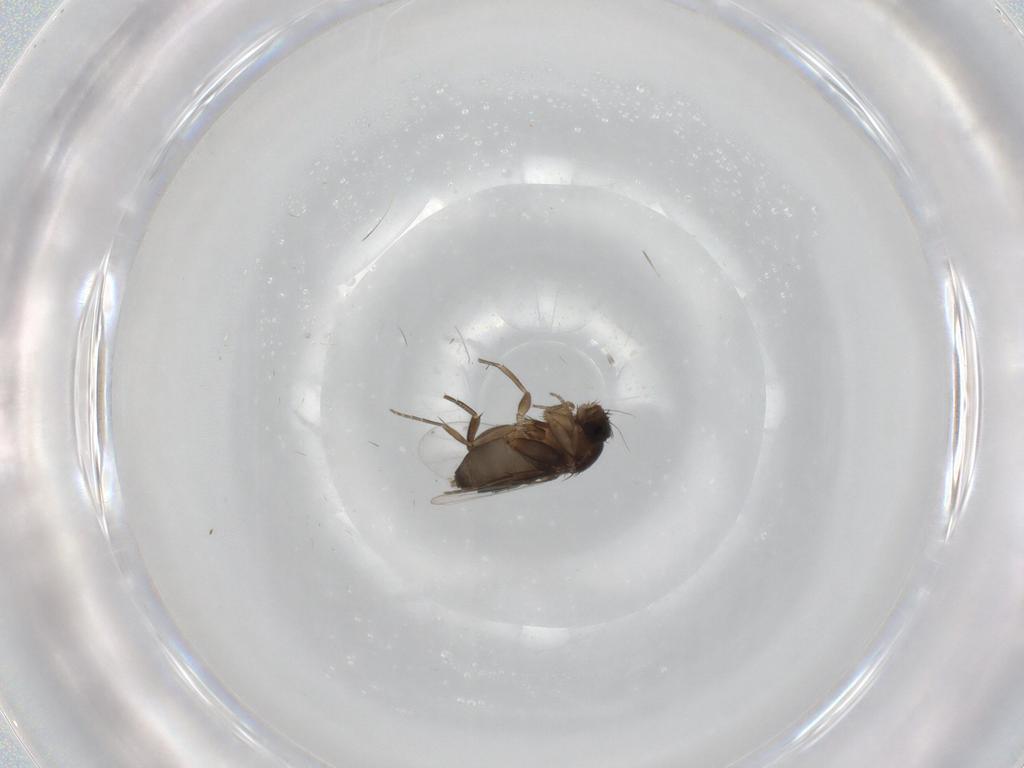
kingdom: Animalia
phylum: Arthropoda
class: Insecta
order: Diptera
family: Phoridae
